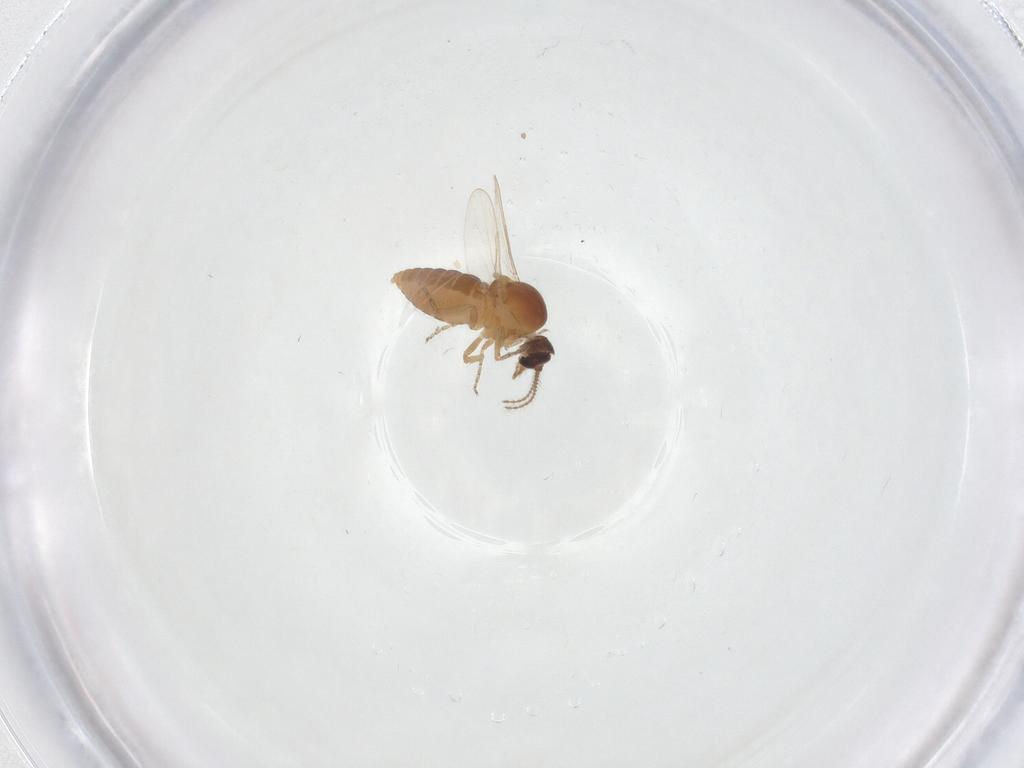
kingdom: Animalia
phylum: Arthropoda
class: Insecta
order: Diptera
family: Ceratopogonidae
